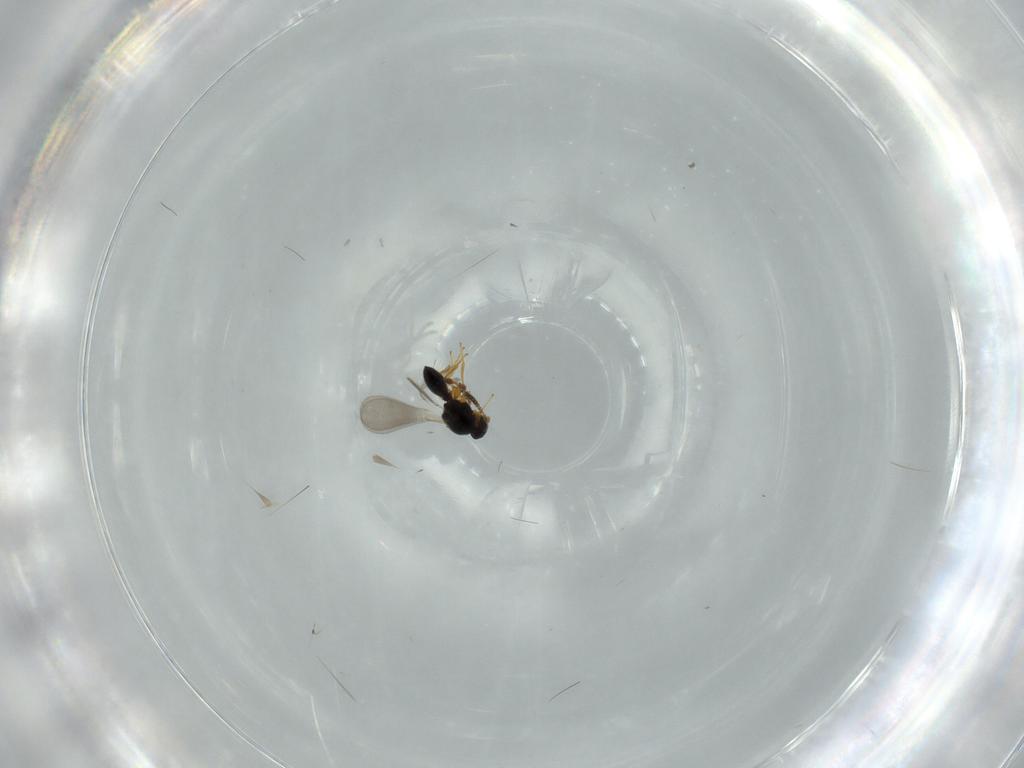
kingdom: Animalia
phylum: Arthropoda
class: Insecta
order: Hymenoptera
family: Platygastridae
